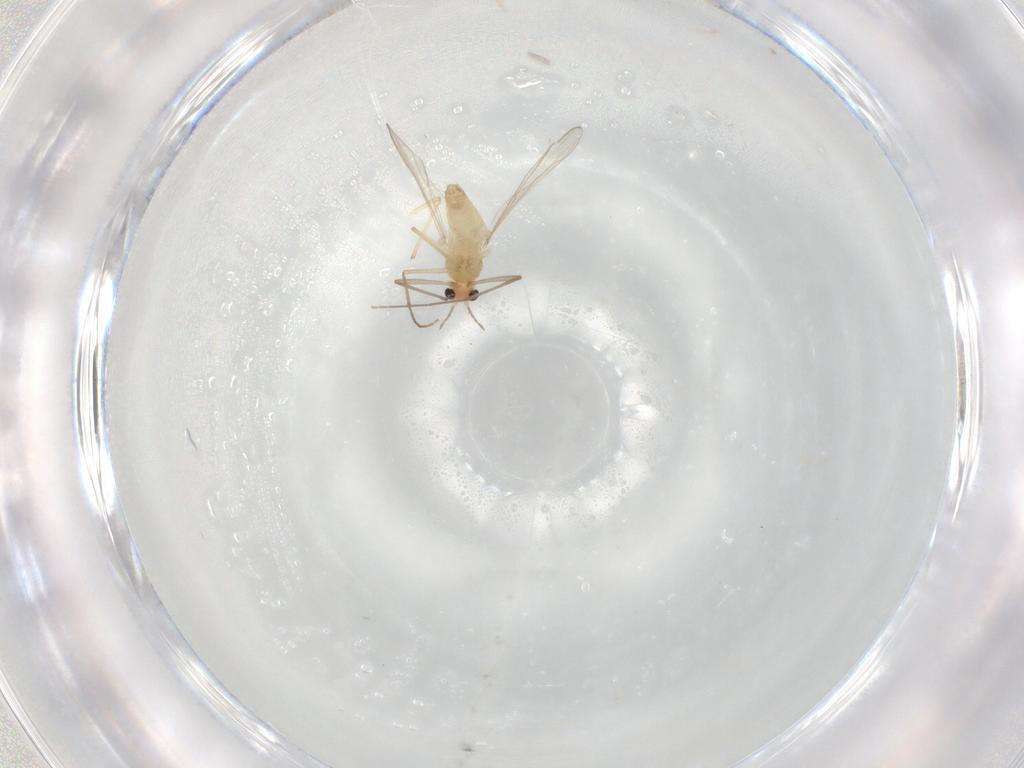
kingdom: Animalia
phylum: Arthropoda
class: Insecta
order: Diptera
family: Chironomidae
